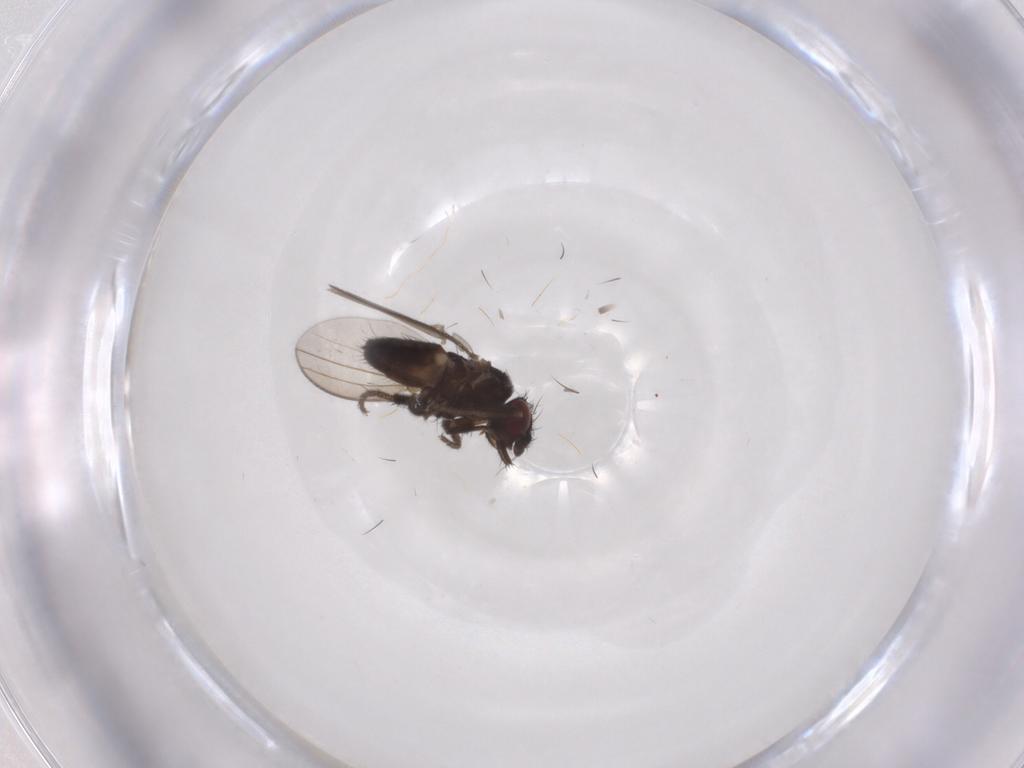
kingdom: Animalia
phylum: Arthropoda
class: Insecta
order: Diptera
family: Milichiidae
